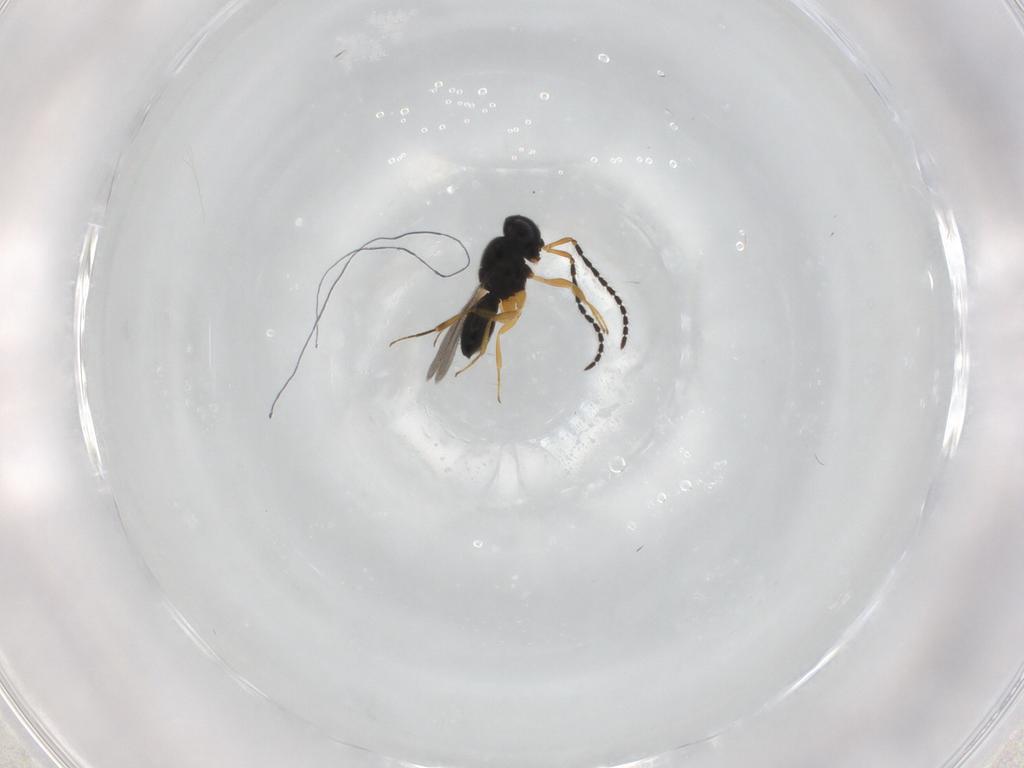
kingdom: Animalia
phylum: Arthropoda
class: Insecta
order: Hymenoptera
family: Scelionidae
